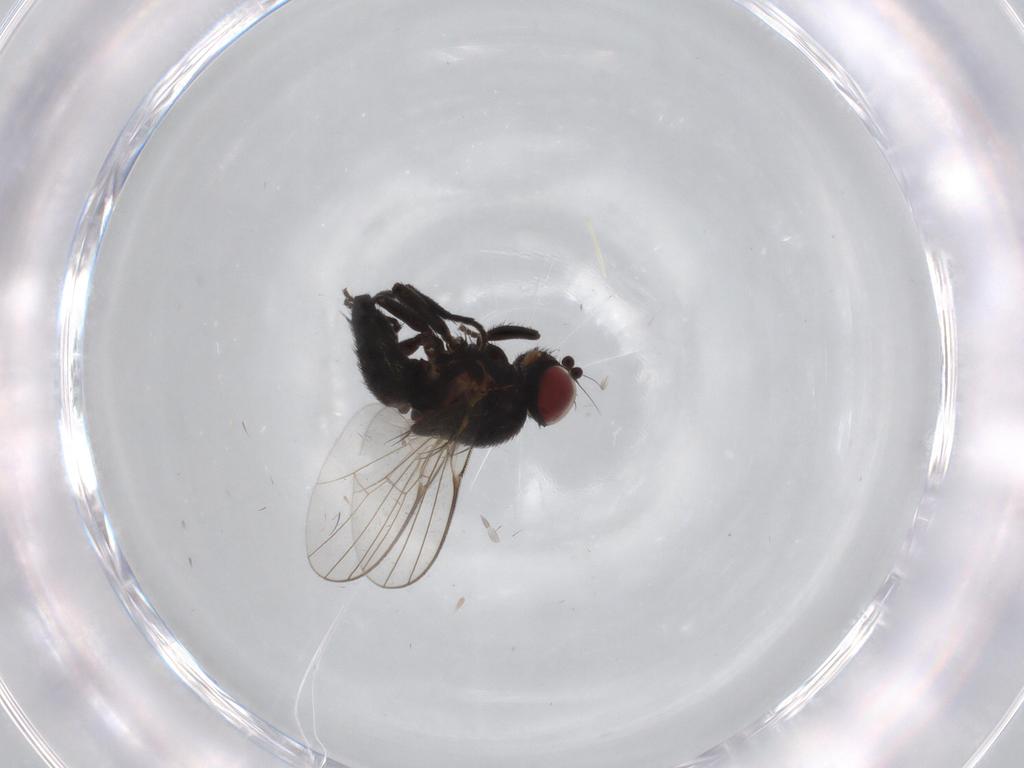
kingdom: Animalia
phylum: Arthropoda
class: Insecta
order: Diptera
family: Agromyzidae
